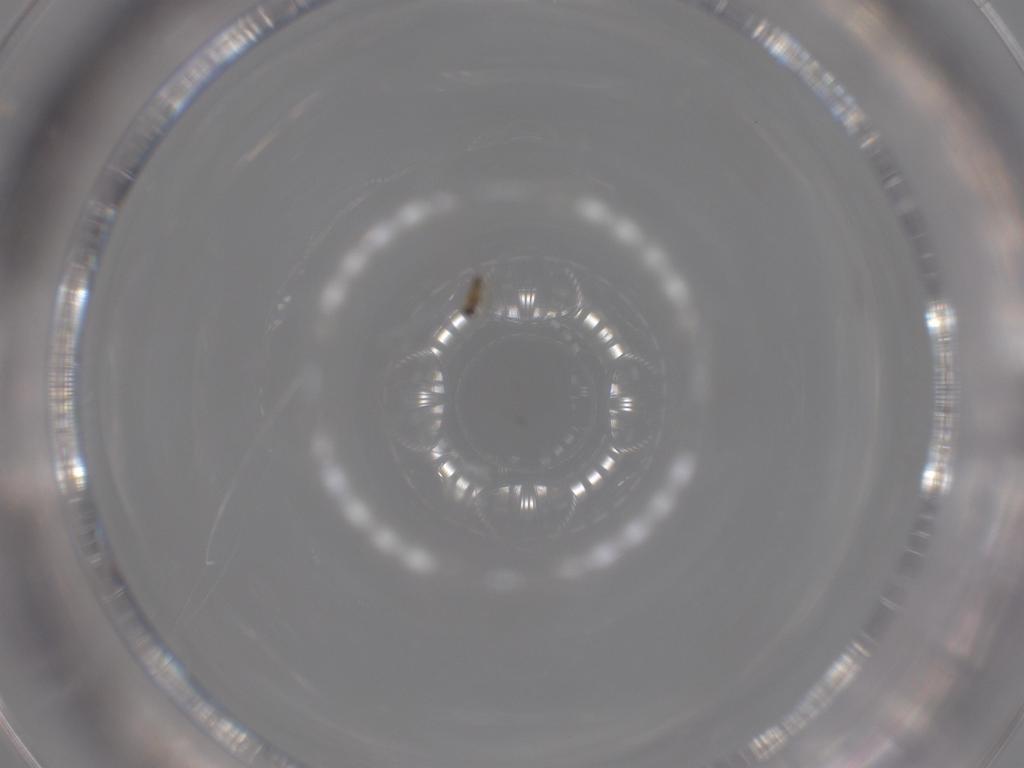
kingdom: Animalia
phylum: Arthropoda
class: Insecta
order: Hymenoptera
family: Mymaridae
